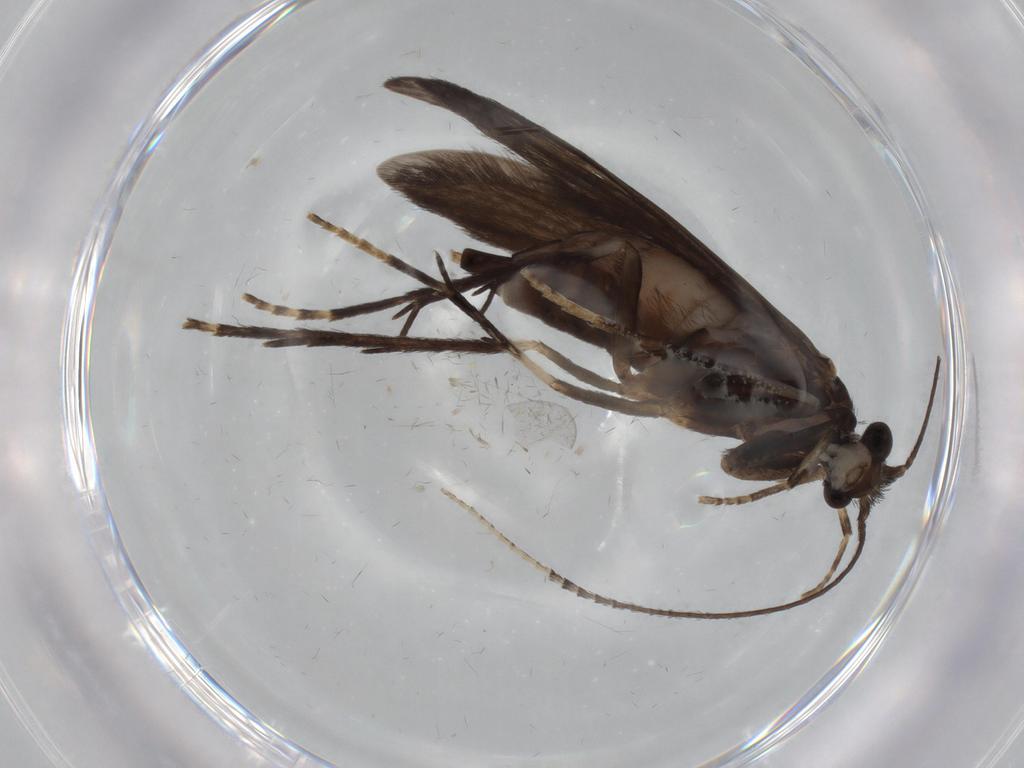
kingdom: Animalia
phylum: Arthropoda
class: Insecta
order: Trichoptera
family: Xiphocentronidae
